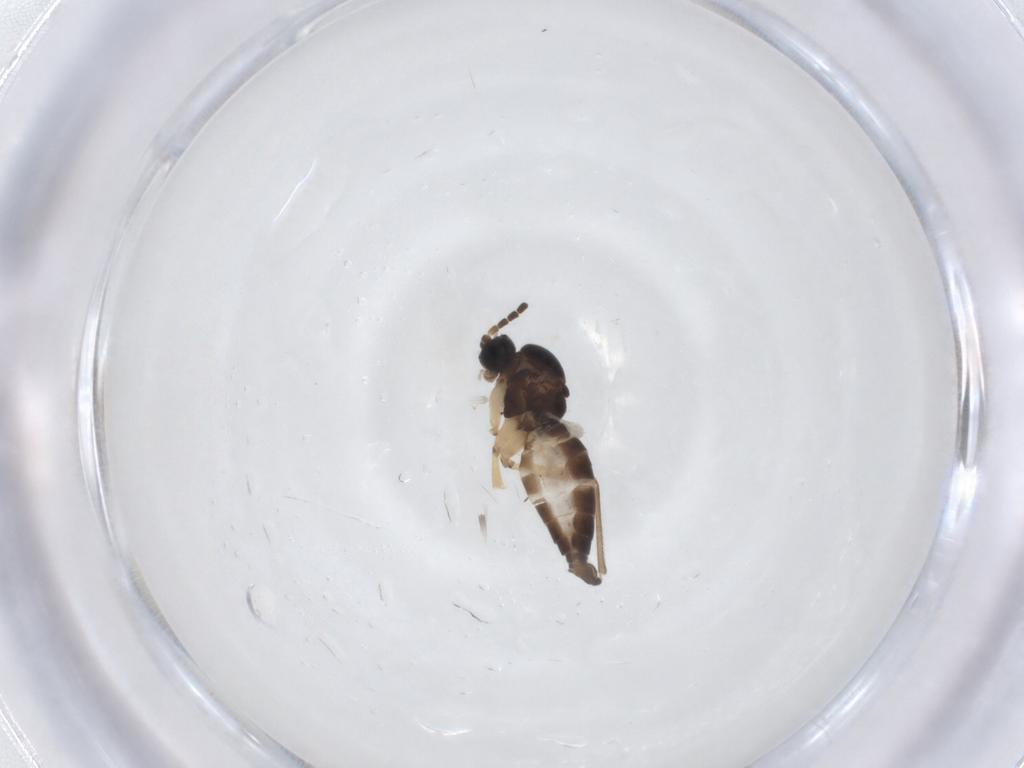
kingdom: Animalia
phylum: Arthropoda
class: Insecta
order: Diptera
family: Sciaridae
